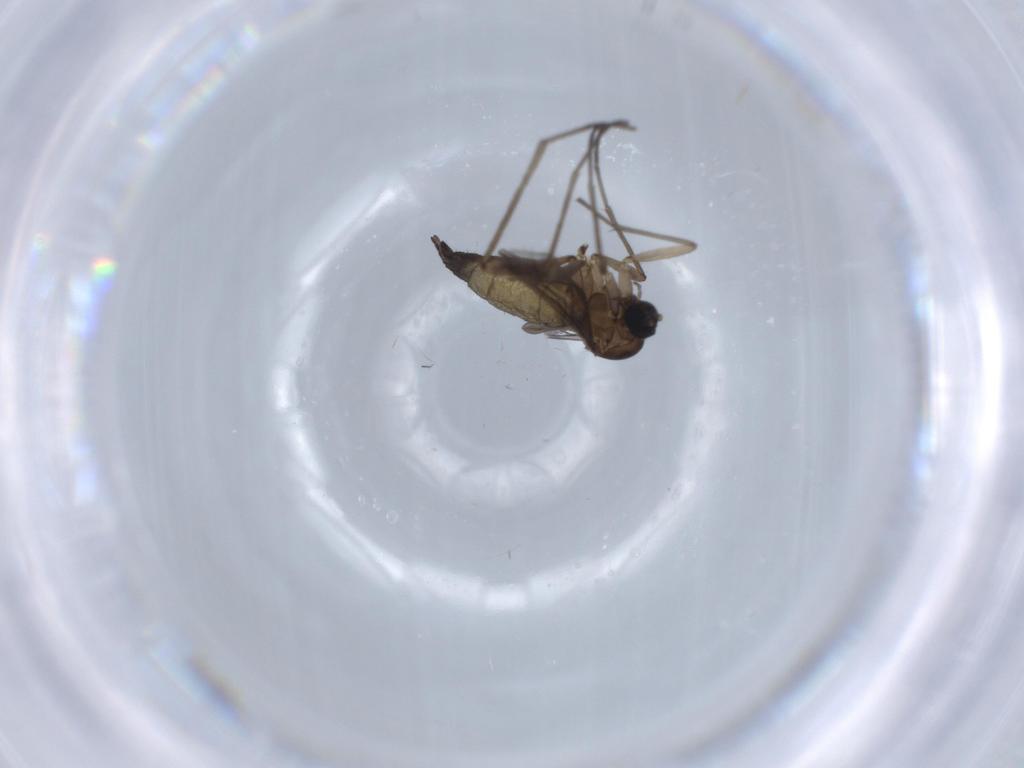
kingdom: Animalia
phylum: Arthropoda
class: Insecta
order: Diptera
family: Sciaridae
